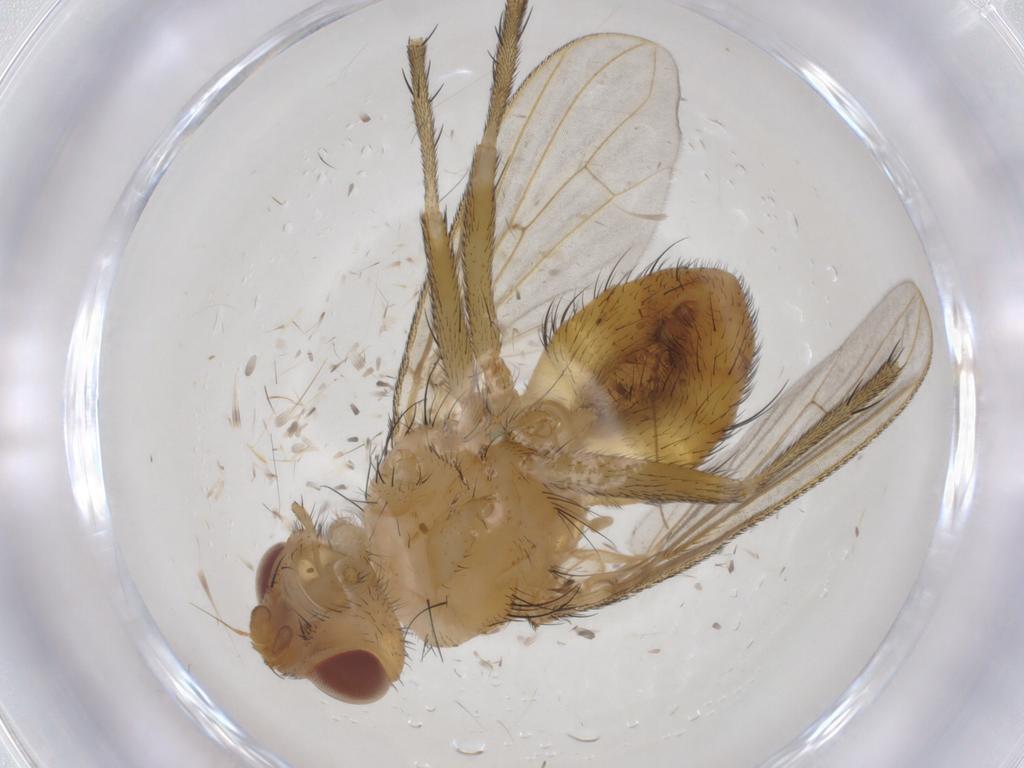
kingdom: Animalia
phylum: Arthropoda
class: Insecta
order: Diptera
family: Tachinidae
